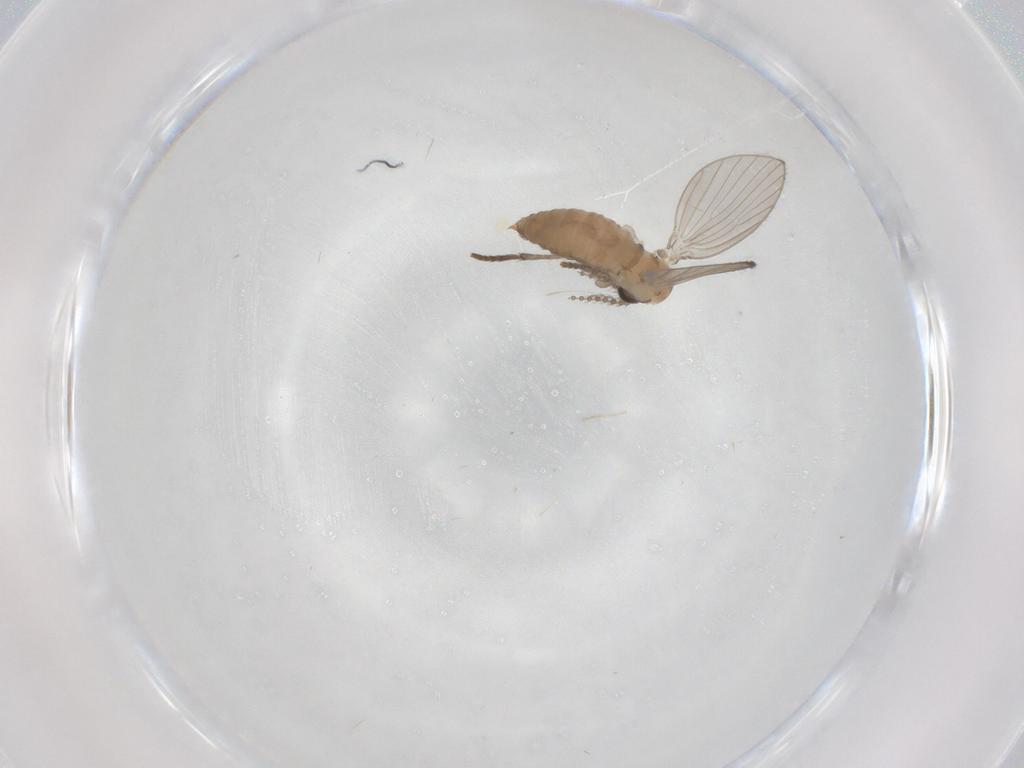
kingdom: Animalia
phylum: Arthropoda
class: Insecta
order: Diptera
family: Psychodidae
